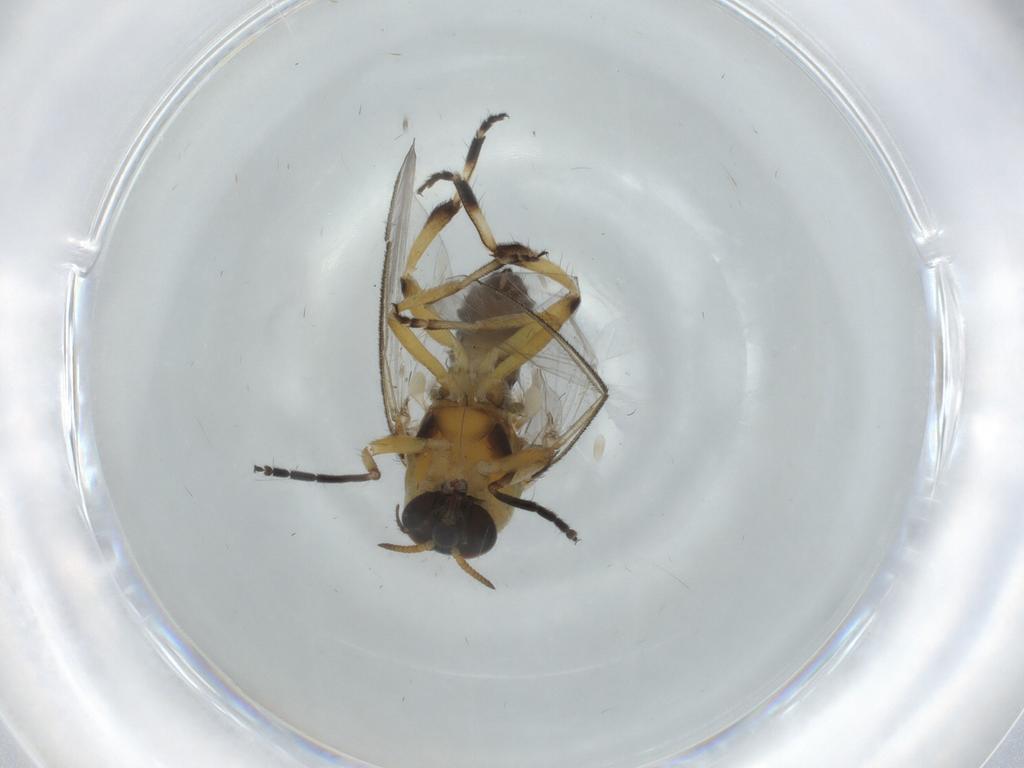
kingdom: Animalia
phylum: Arthropoda
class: Insecta
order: Diptera
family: Phoridae
